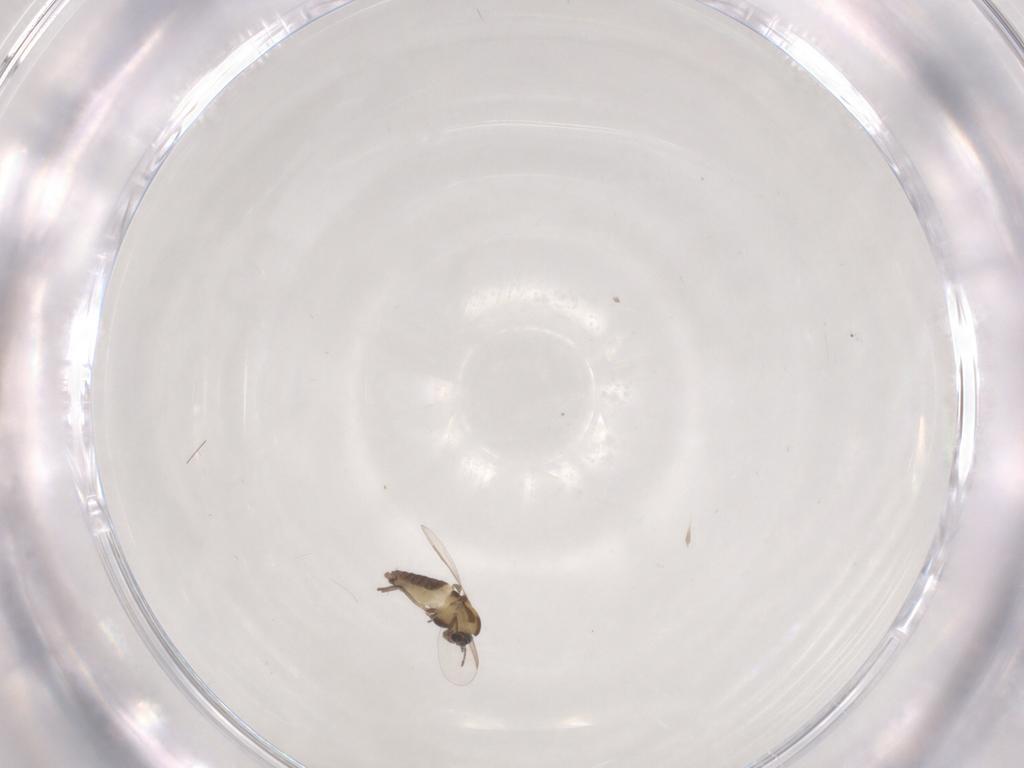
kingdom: Animalia
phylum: Arthropoda
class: Insecta
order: Diptera
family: Chironomidae
